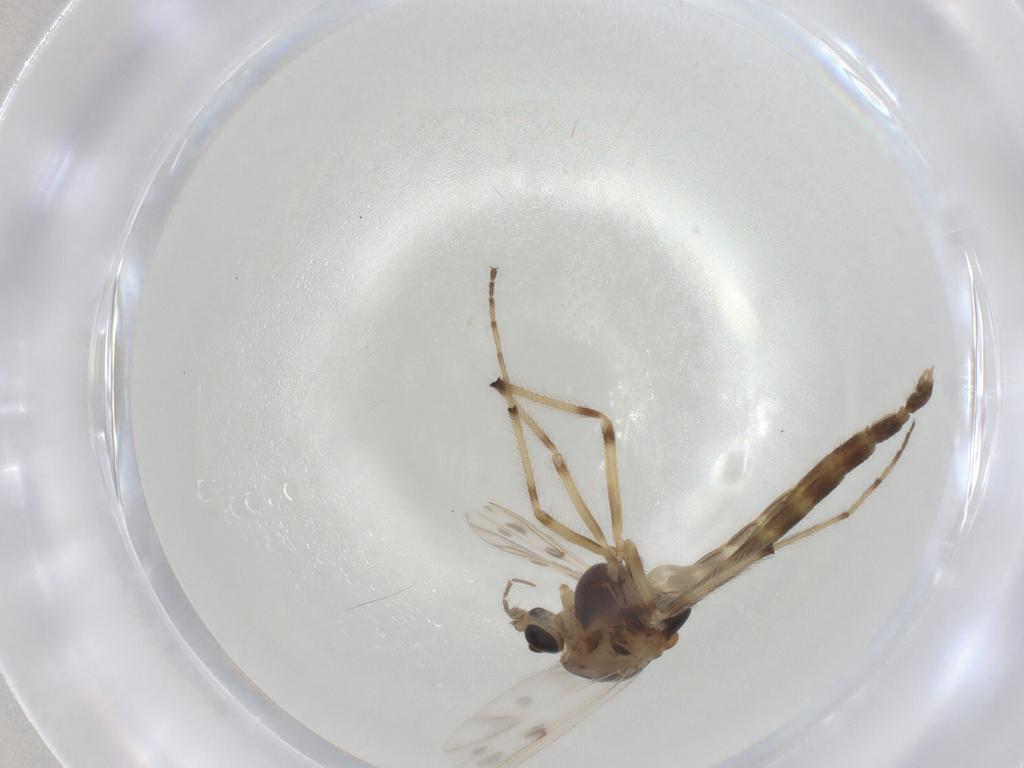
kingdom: Animalia
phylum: Arthropoda
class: Insecta
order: Diptera
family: Chironomidae
